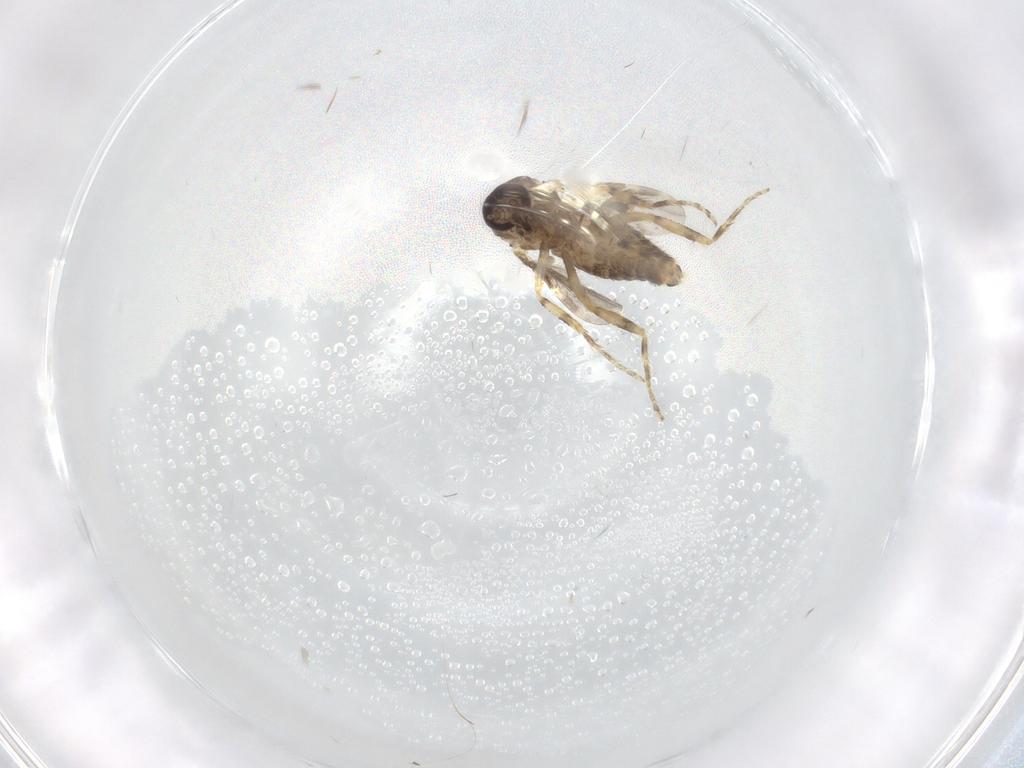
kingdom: Animalia
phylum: Arthropoda
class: Insecta
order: Diptera
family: Ceratopogonidae
